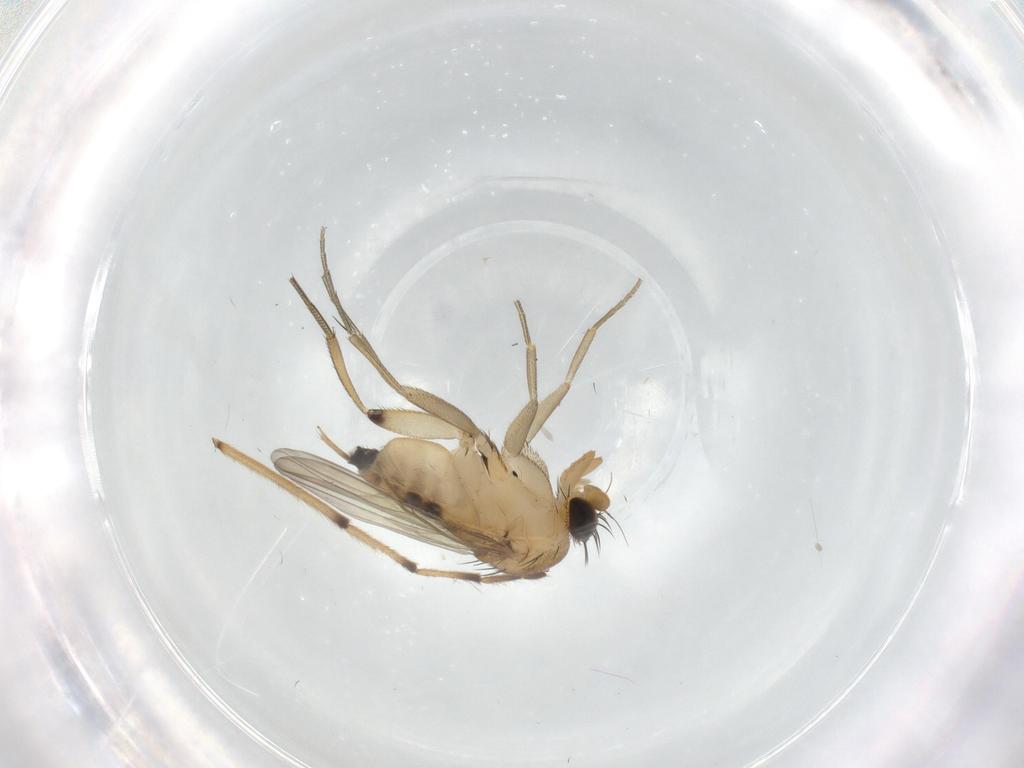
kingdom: Animalia
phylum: Arthropoda
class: Insecta
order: Diptera
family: Phoridae
